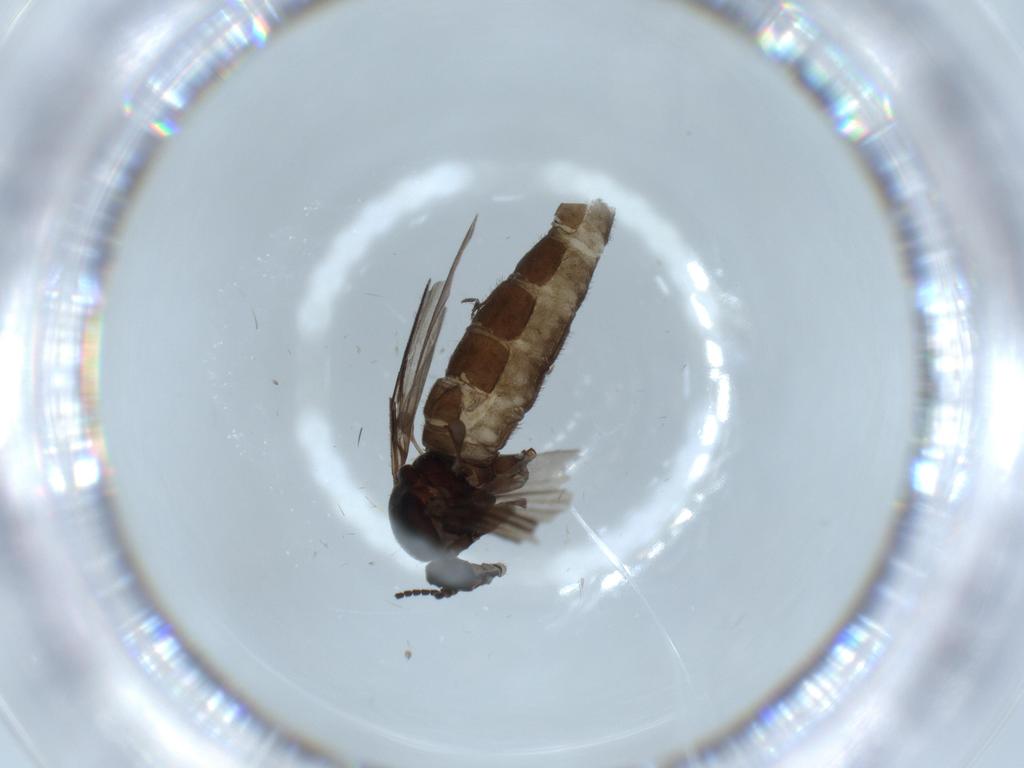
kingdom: Animalia
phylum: Arthropoda
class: Insecta
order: Diptera
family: Sciaridae
